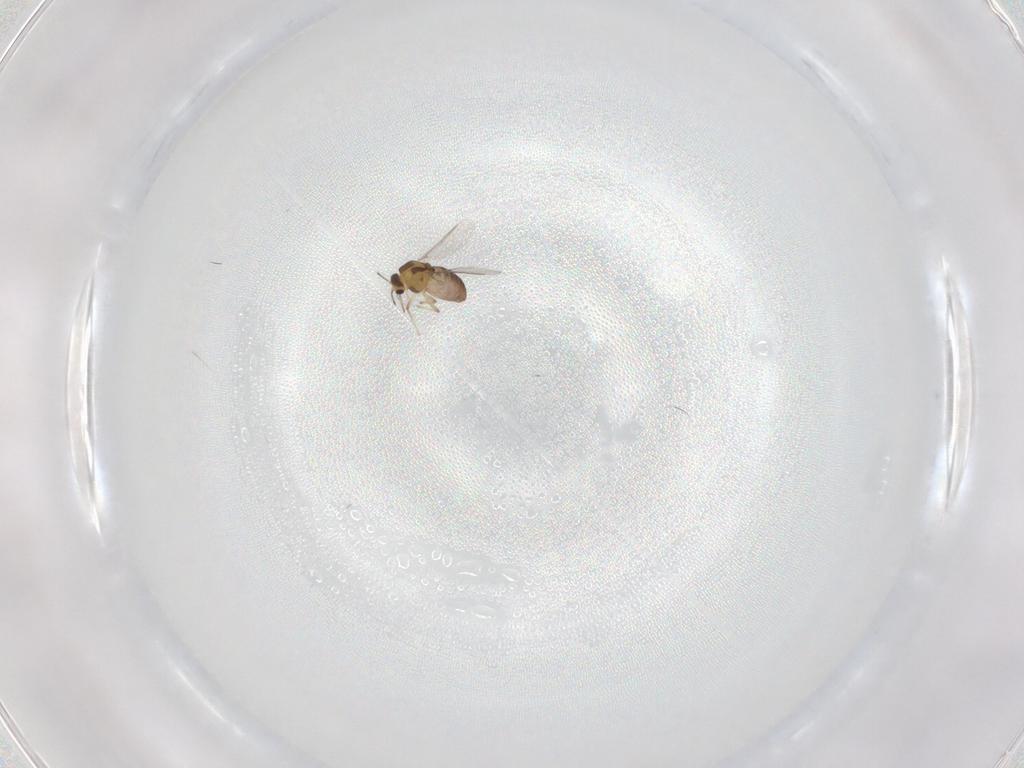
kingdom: Animalia
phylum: Arthropoda
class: Insecta
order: Diptera
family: Chironomidae
